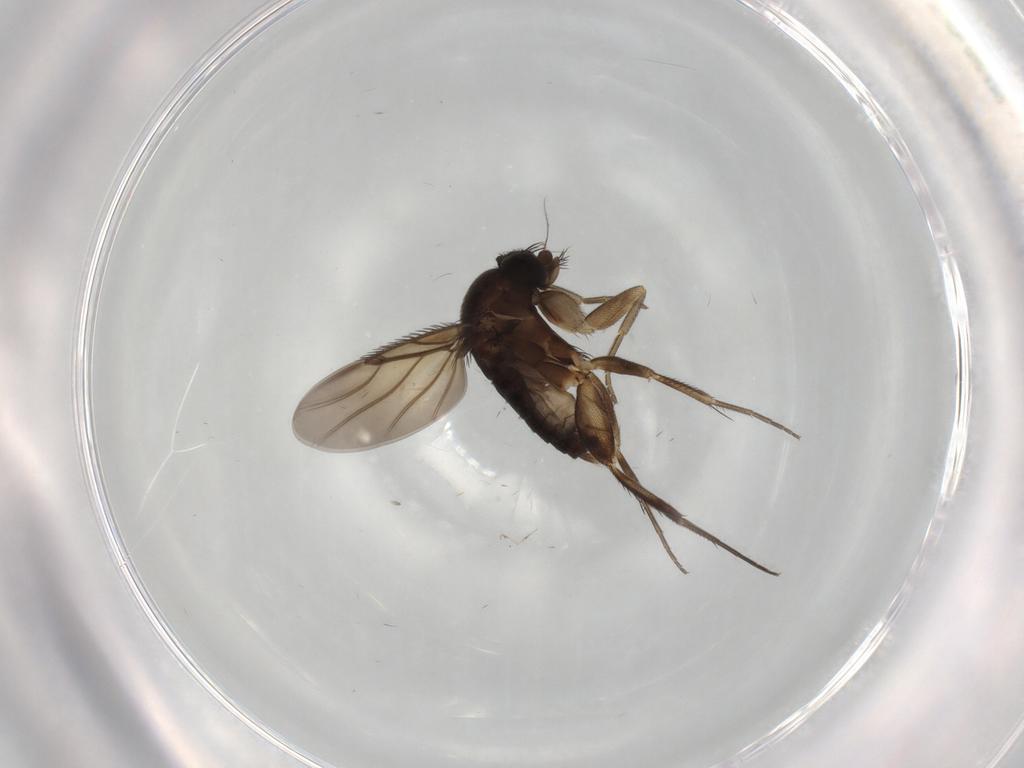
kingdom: Animalia
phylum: Arthropoda
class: Insecta
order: Diptera
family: Phoridae
